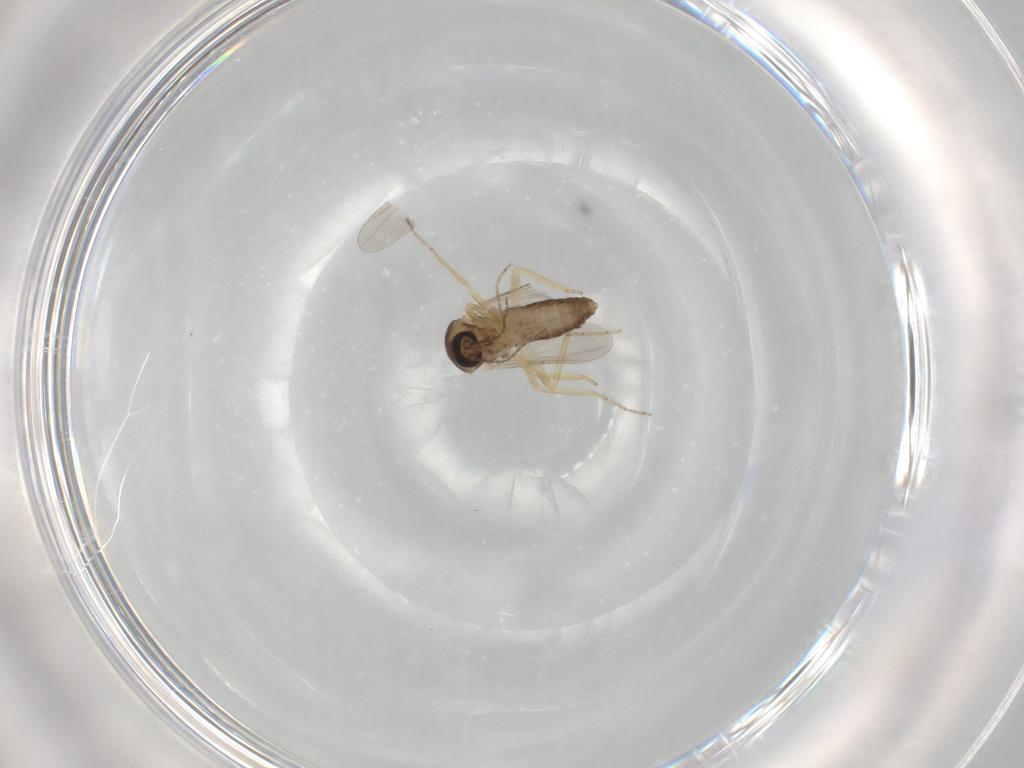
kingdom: Animalia
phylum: Arthropoda
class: Insecta
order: Diptera
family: Ceratopogonidae
